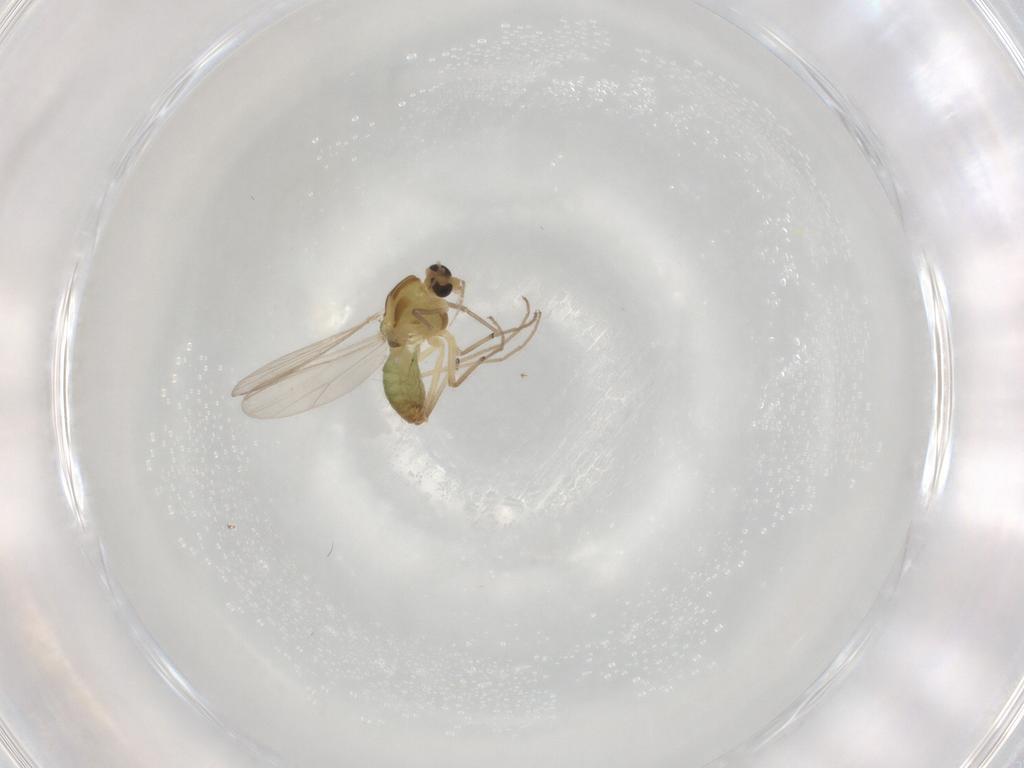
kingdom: Animalia
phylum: Arthropoda
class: Insecta
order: Diptera
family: Chironomidae
